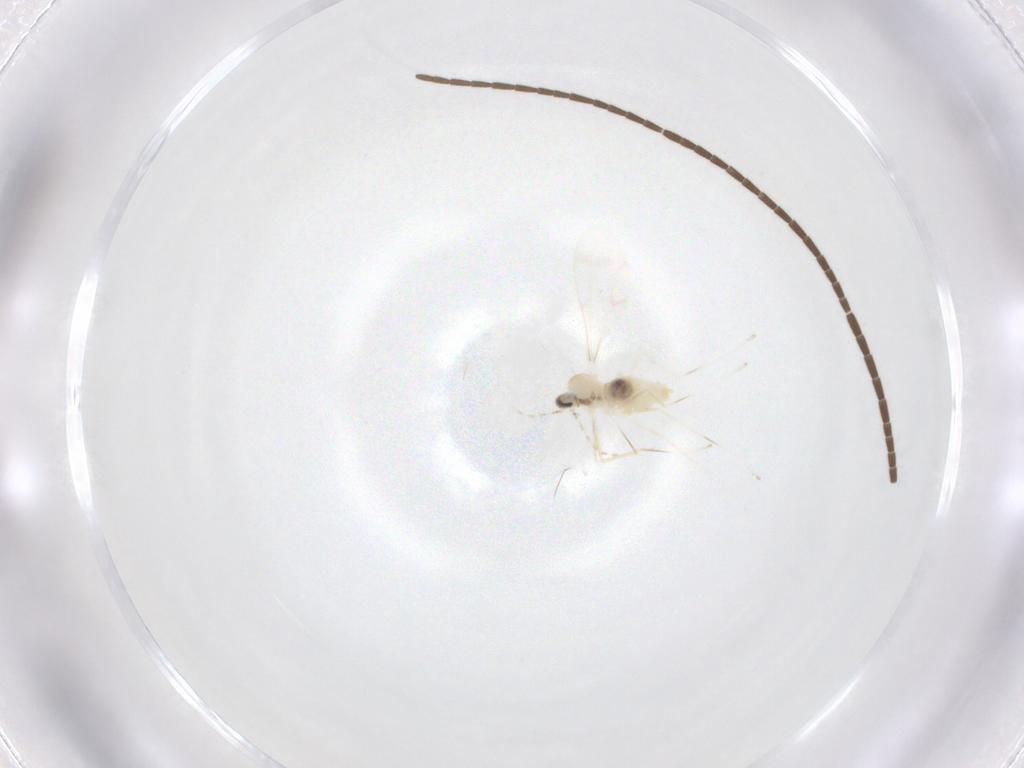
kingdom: Animalia
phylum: Arthropoda
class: Insecta
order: Diptera
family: Cecidomyiidae
